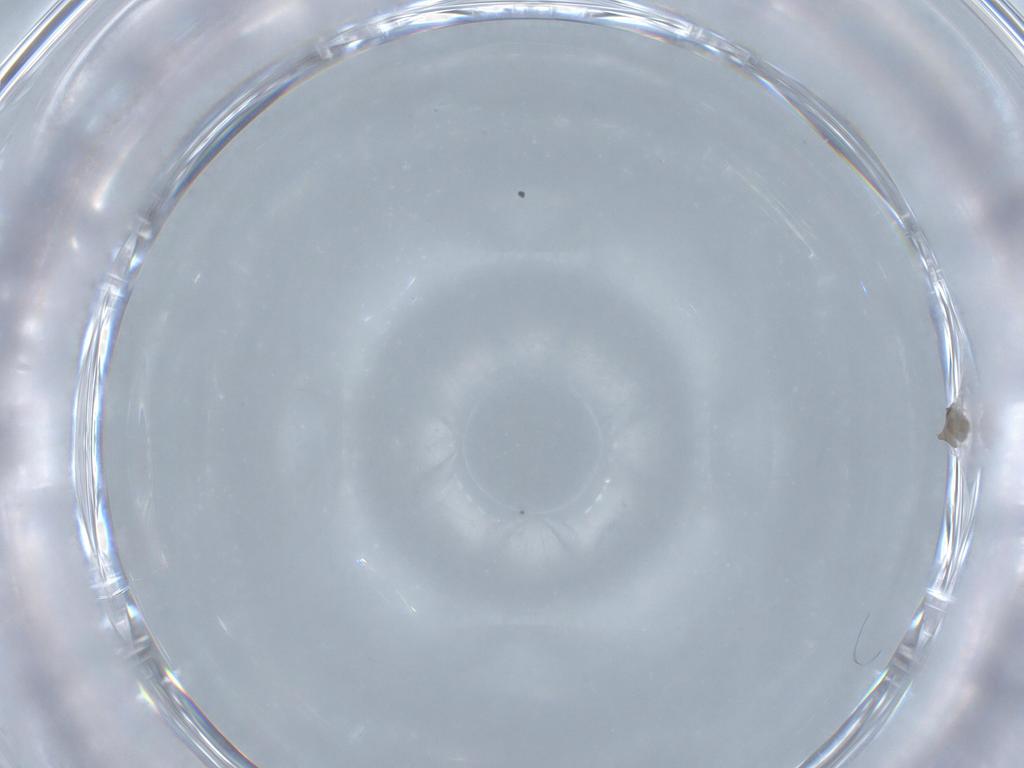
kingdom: Animalia
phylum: Arthropoda
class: Insecta
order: Diptera
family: Cecidomyiidae
